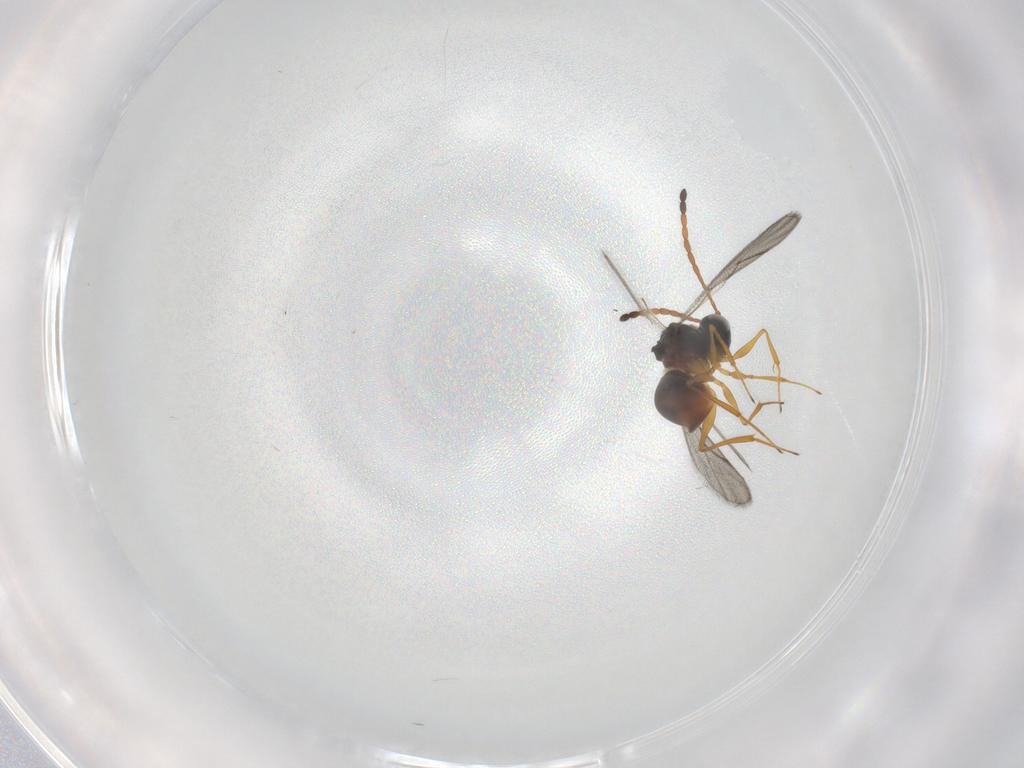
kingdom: Animalia
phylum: Arthropoda
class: Insecta
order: Hymenoptera
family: Figitidae
